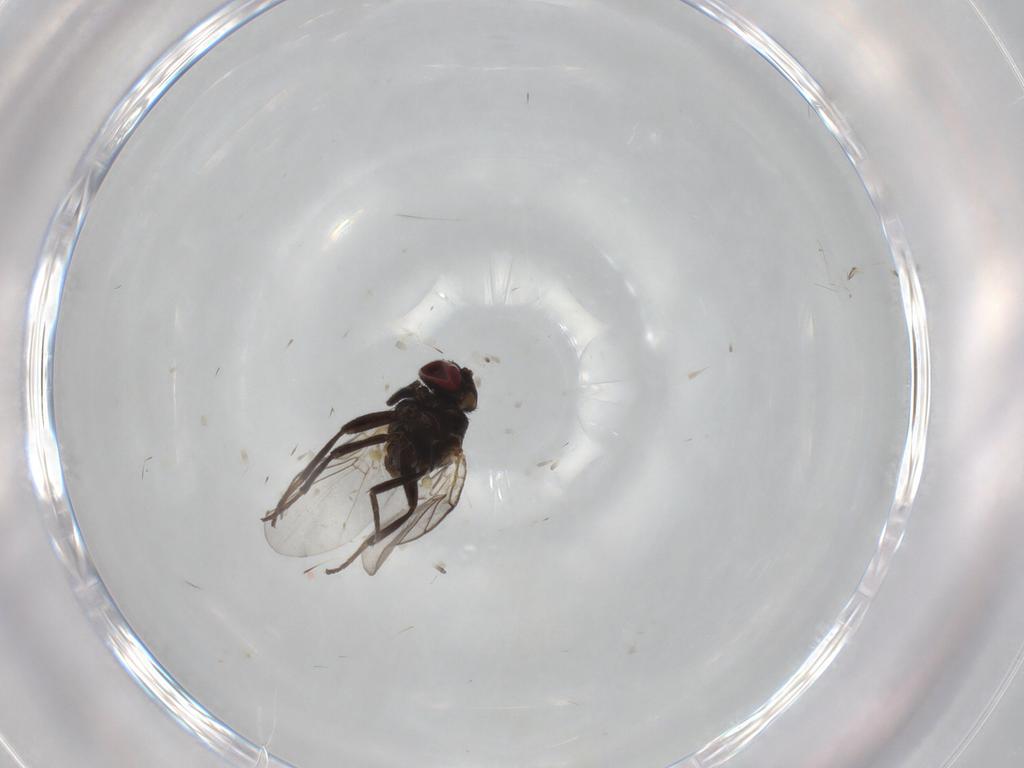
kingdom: Animalia
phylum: Arthropoda
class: Insecta
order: Diptera
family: Agromyzidae
